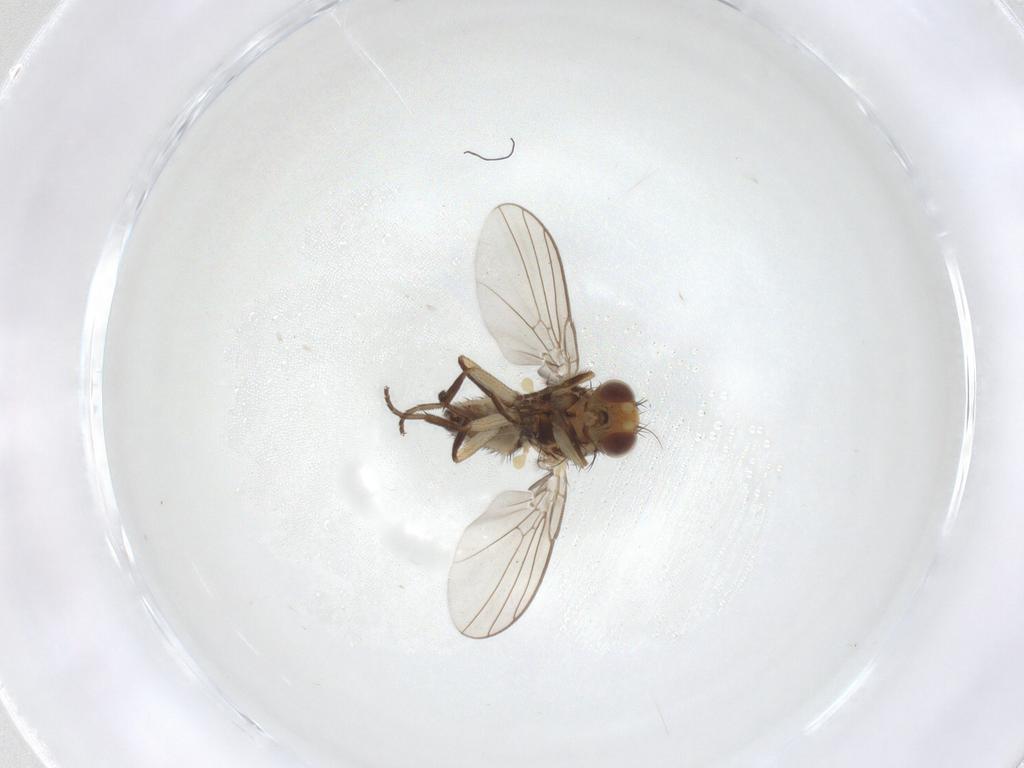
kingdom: Animalia
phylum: Arthropoda
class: Insecta
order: Diptera
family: Agromyzidae
